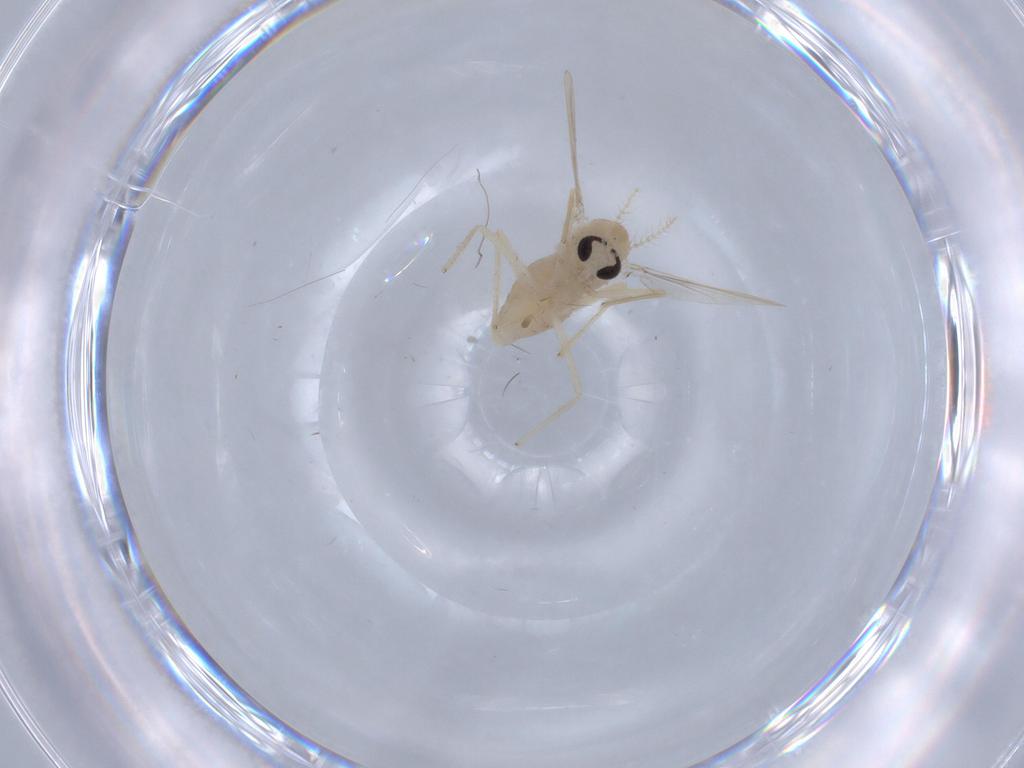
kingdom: Animalia
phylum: Arthropoda
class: Insecta
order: Diptera
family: Chironomidae
